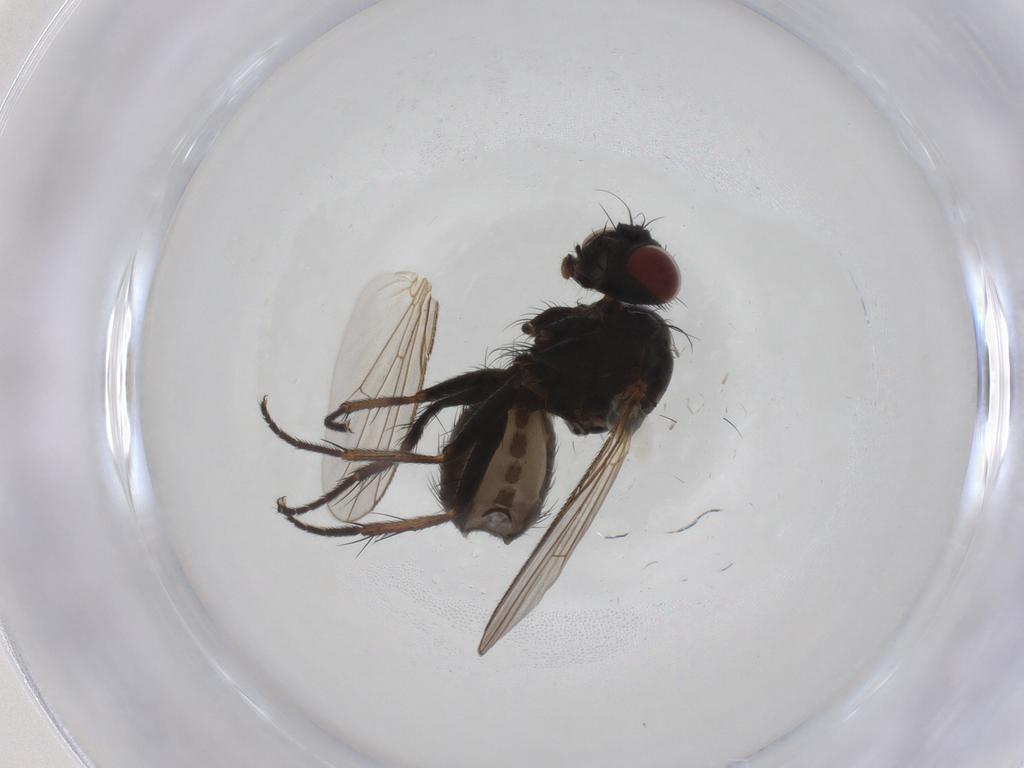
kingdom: Animalia
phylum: Arthropoda
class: Insecta
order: Diptera
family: Muscidae
